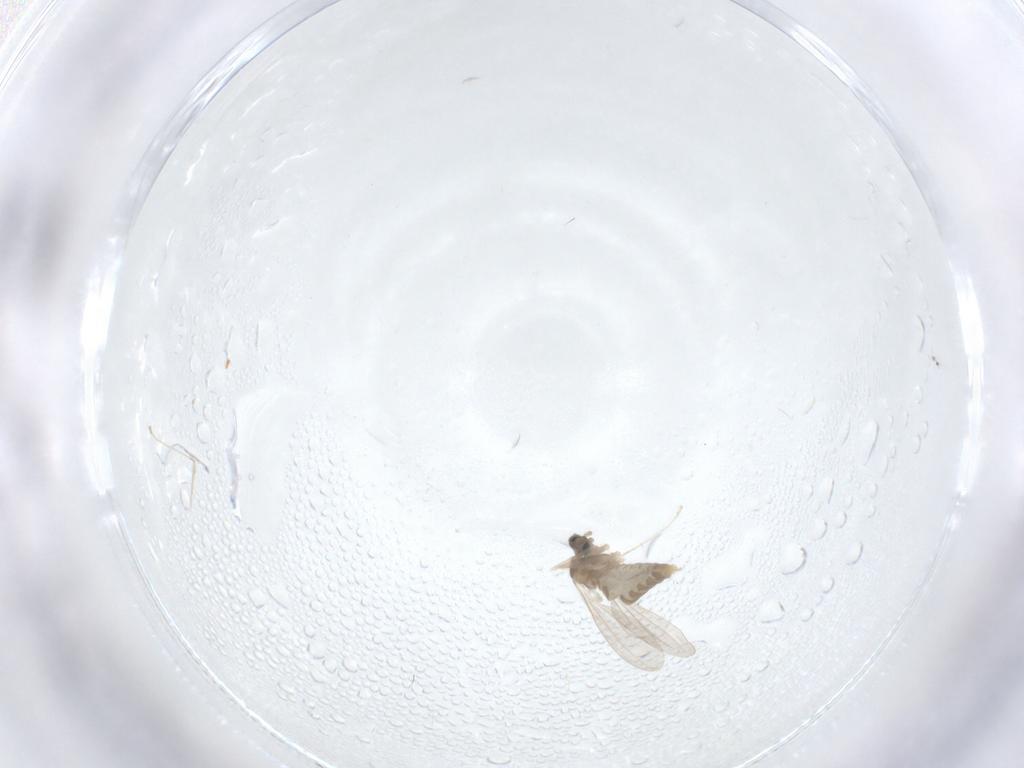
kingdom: Animalia
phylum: Arthropoda
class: Insecta
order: Diptera
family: Cecidomyiidae
